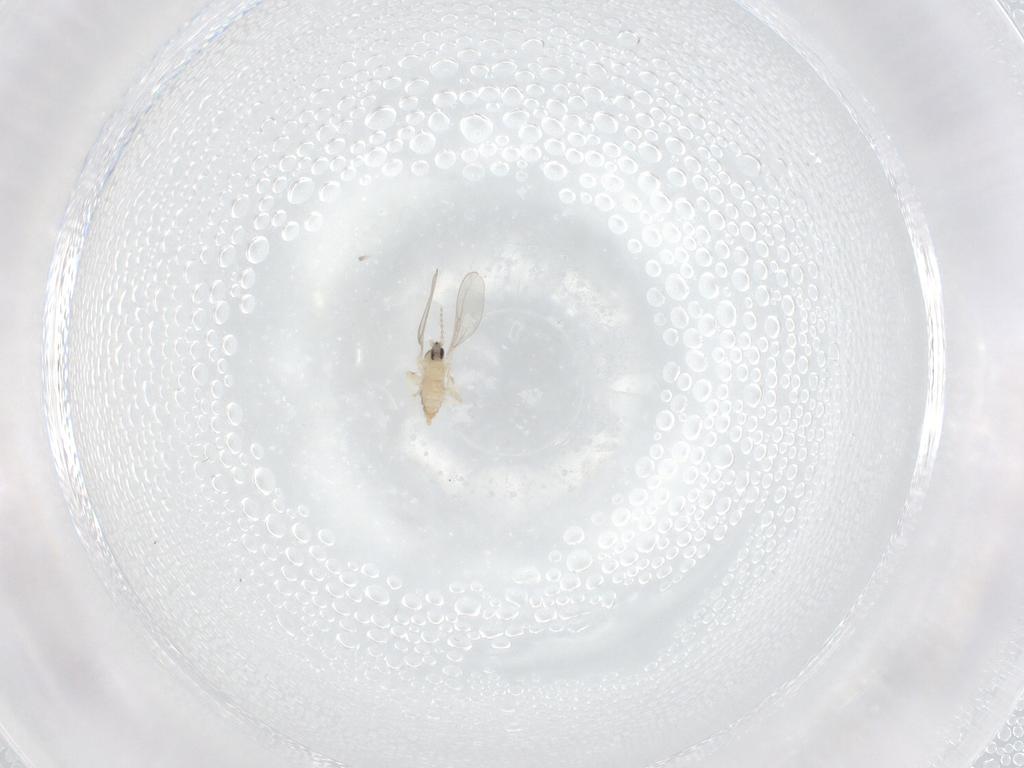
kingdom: Animalia
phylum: Arthropoda
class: Insecta
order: Diptera
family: Cecidomyiidae
